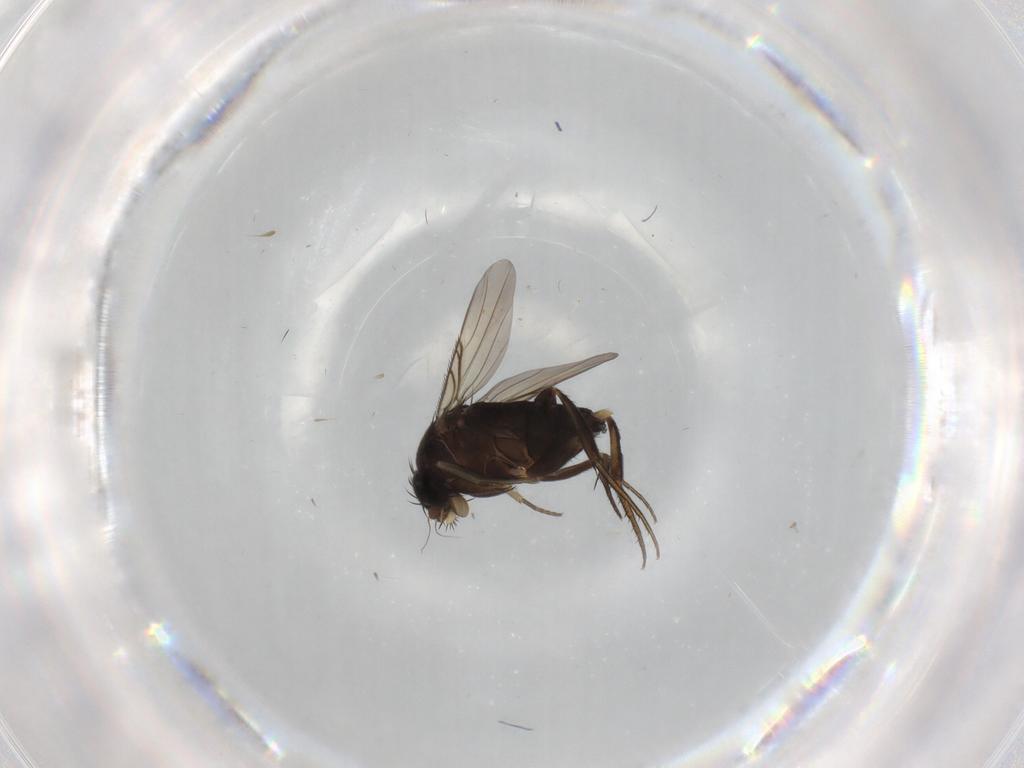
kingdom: Animalia
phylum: Arthropoda
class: Insecta
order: Diptera
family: Phoridae
